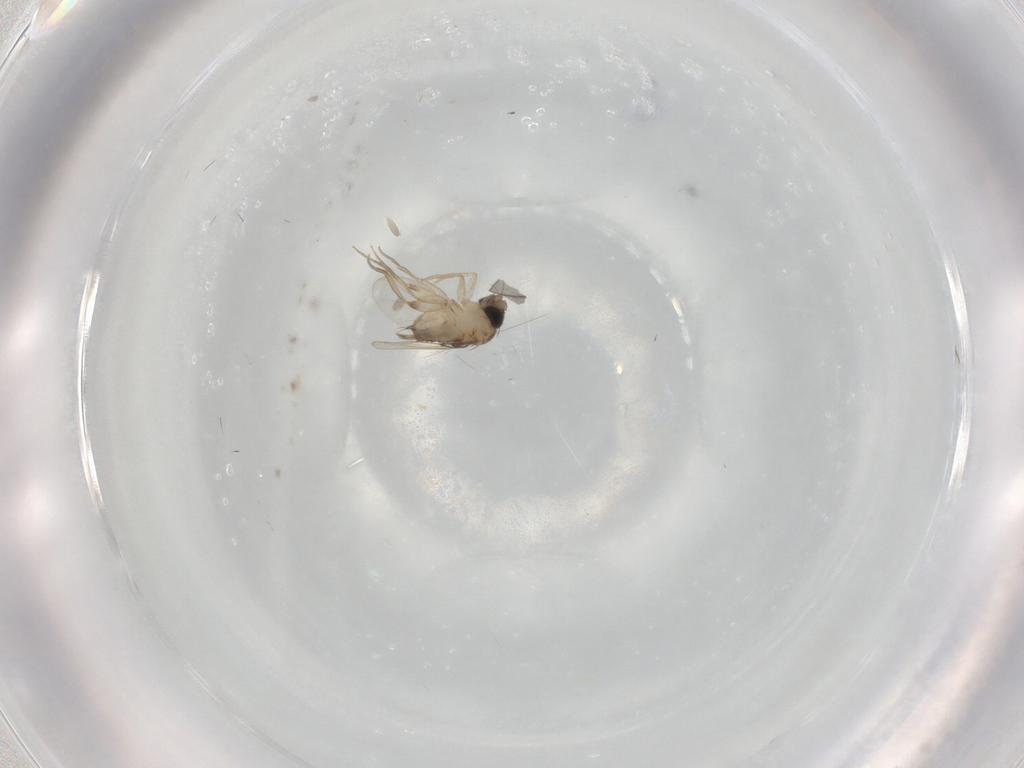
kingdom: Animalia
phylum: Arthropoda
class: Insecta
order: Diptera
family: Phoridae
